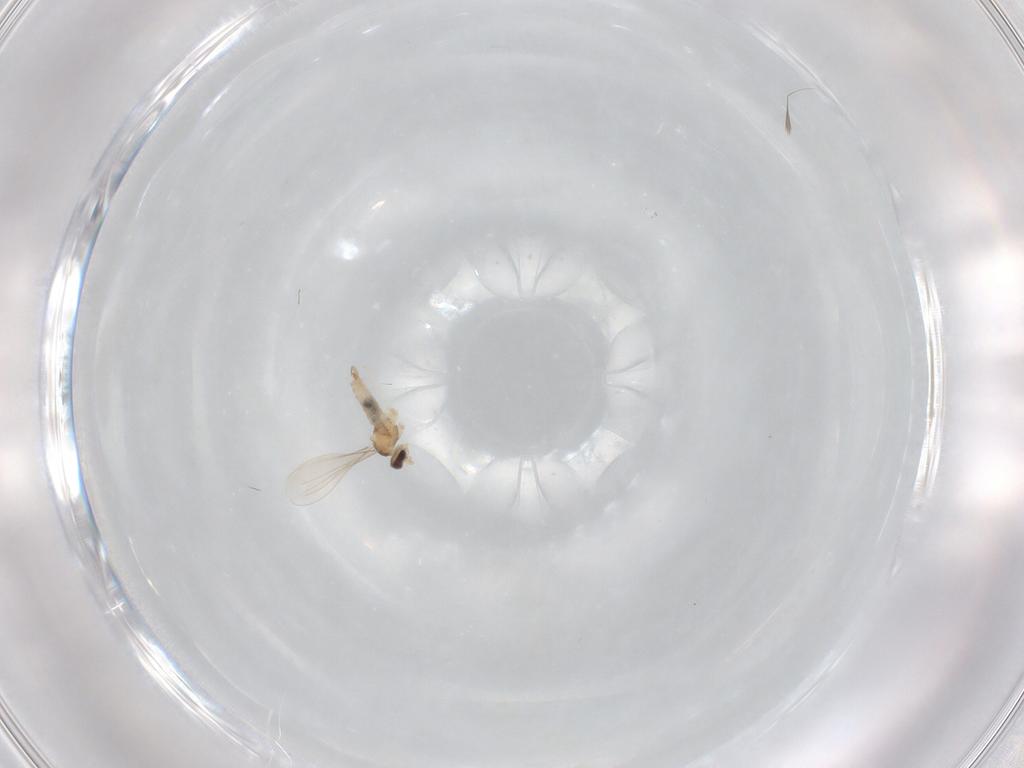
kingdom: Animalia
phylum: Arthropoda
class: Insecta
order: Diptera
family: Cecidomyiidae
